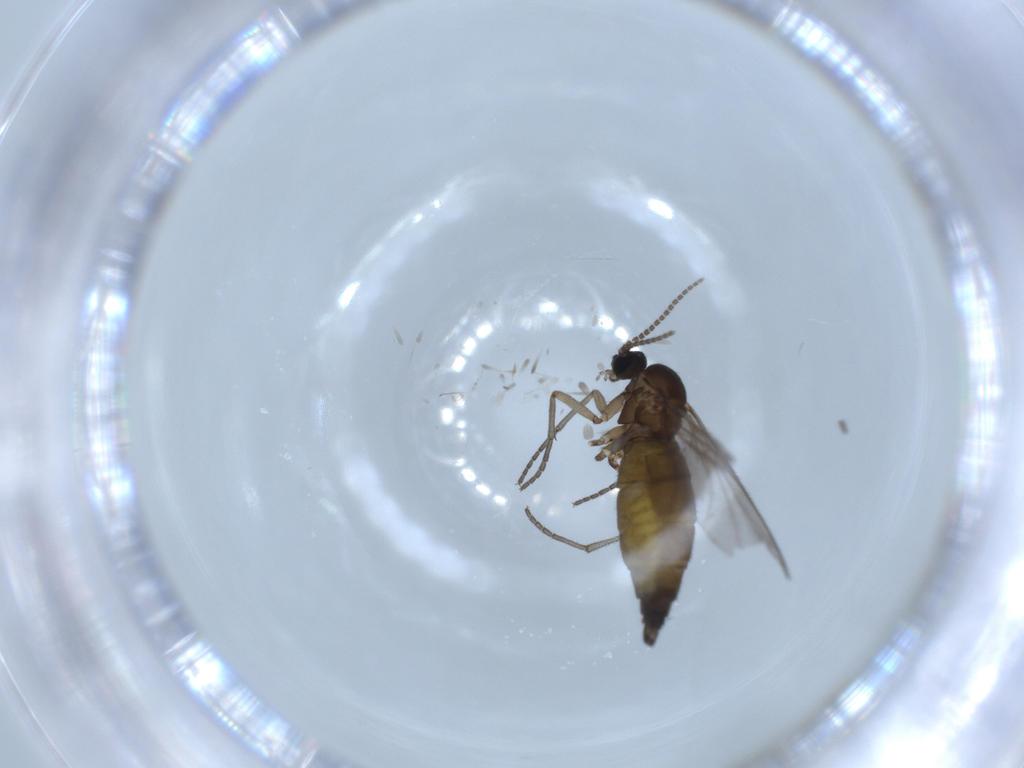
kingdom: Animalia
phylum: Arthropoda
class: Insecta
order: Diptera
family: Sciaridae
